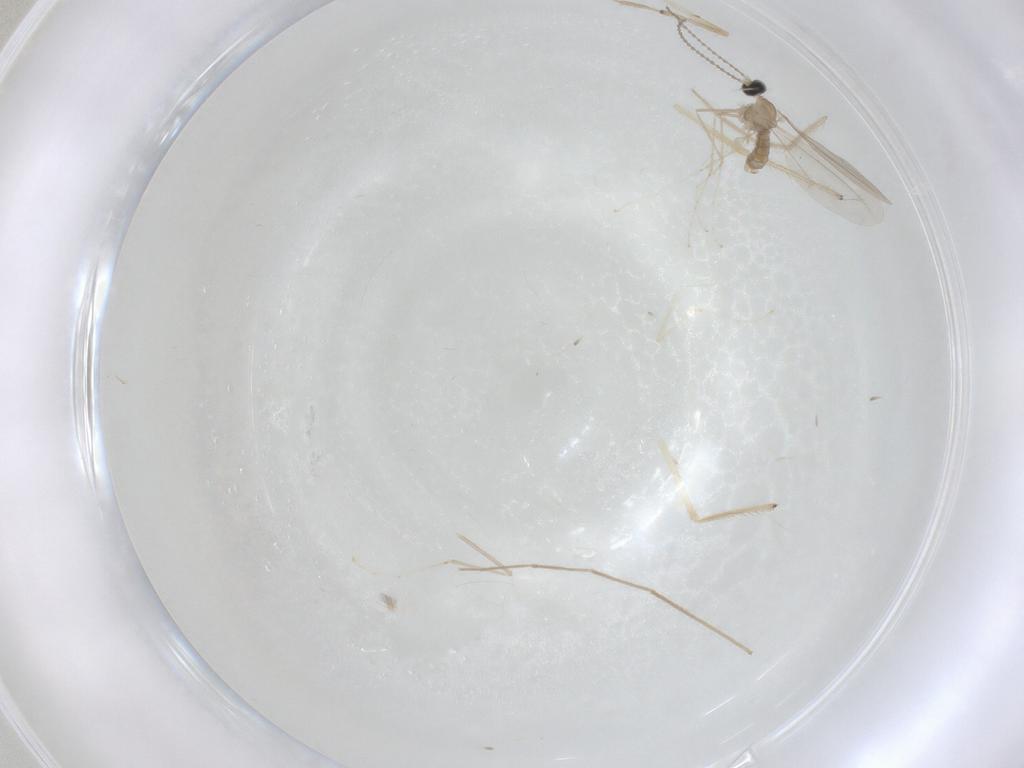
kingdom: Animalia
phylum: Arthropoda
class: Insecta
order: Diptera
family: Cecidomyiidae
